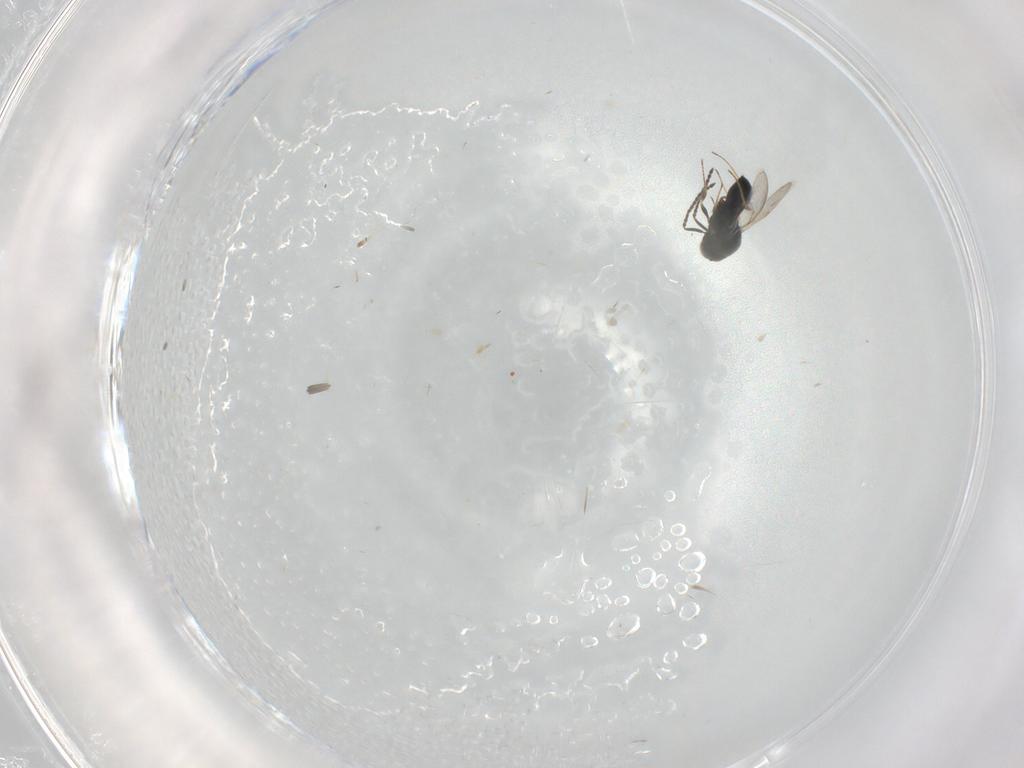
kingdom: Animalia
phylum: Arthropoda
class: Insecta
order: Hymenoptera
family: Scelionidae
